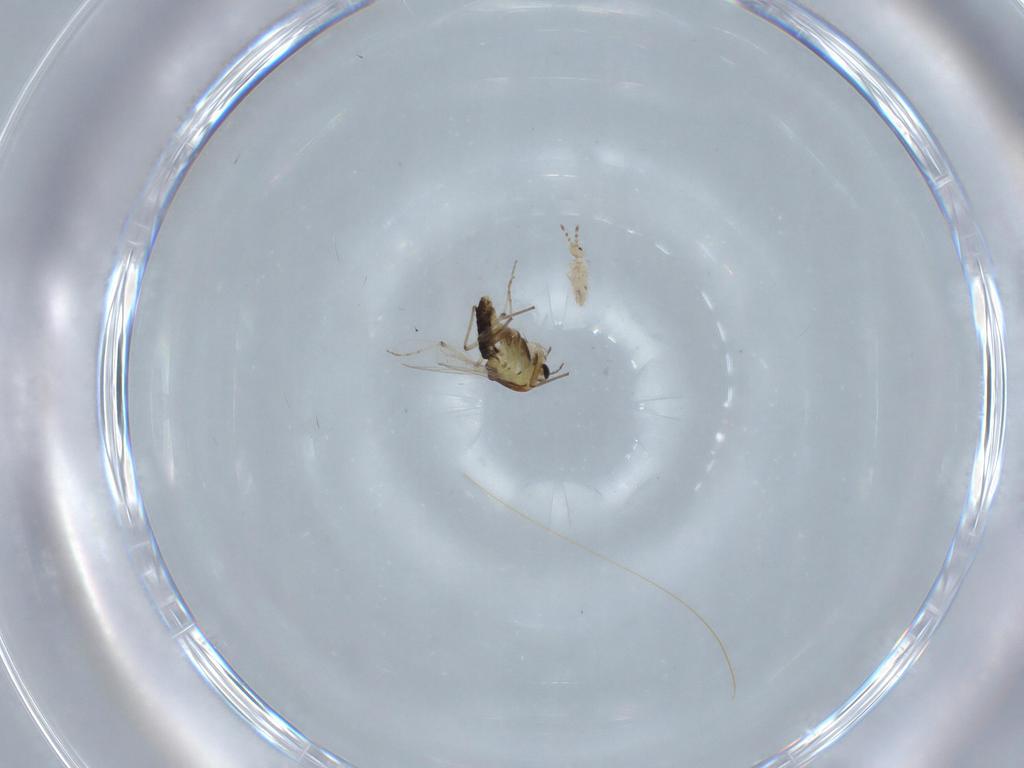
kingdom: Animalia
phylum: Arthropoda
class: Insecta
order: Diptera
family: Chironomidae
